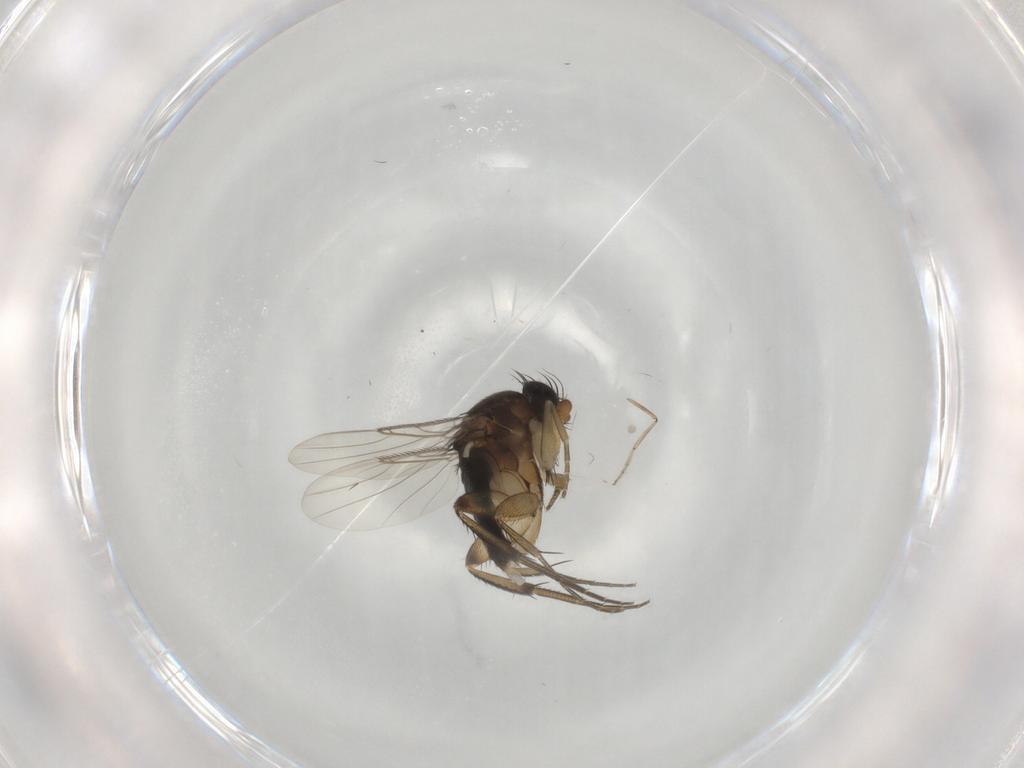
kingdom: Animalia
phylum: Arthropoda
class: Insecta
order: Diptera
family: Phoridae
